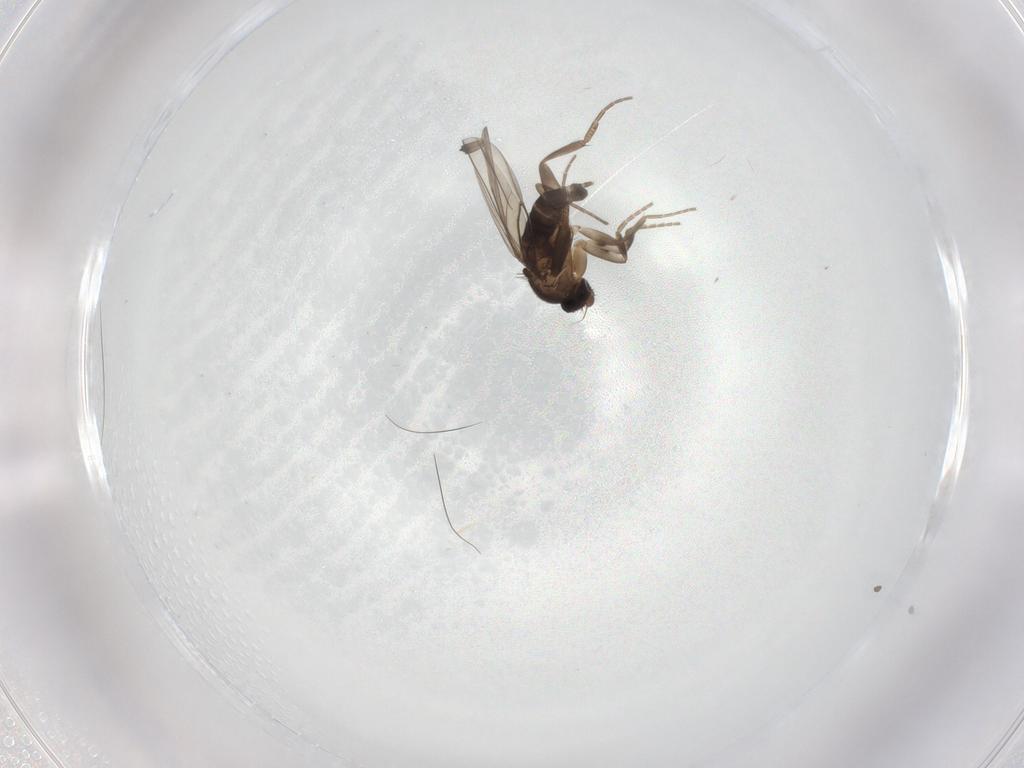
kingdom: Animalia
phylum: Arthropoda
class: Insecta
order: Diptera
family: Phoridae
